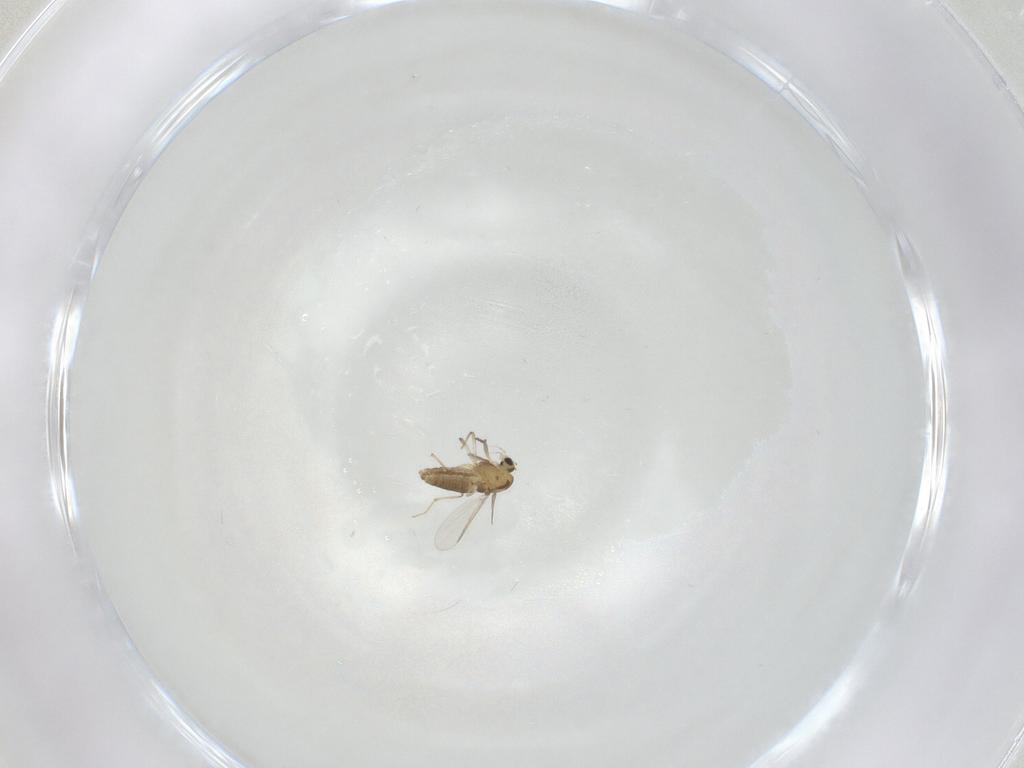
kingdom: Animalia
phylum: Arthropoda
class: Insecta
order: Diptera
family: Chironomidae
